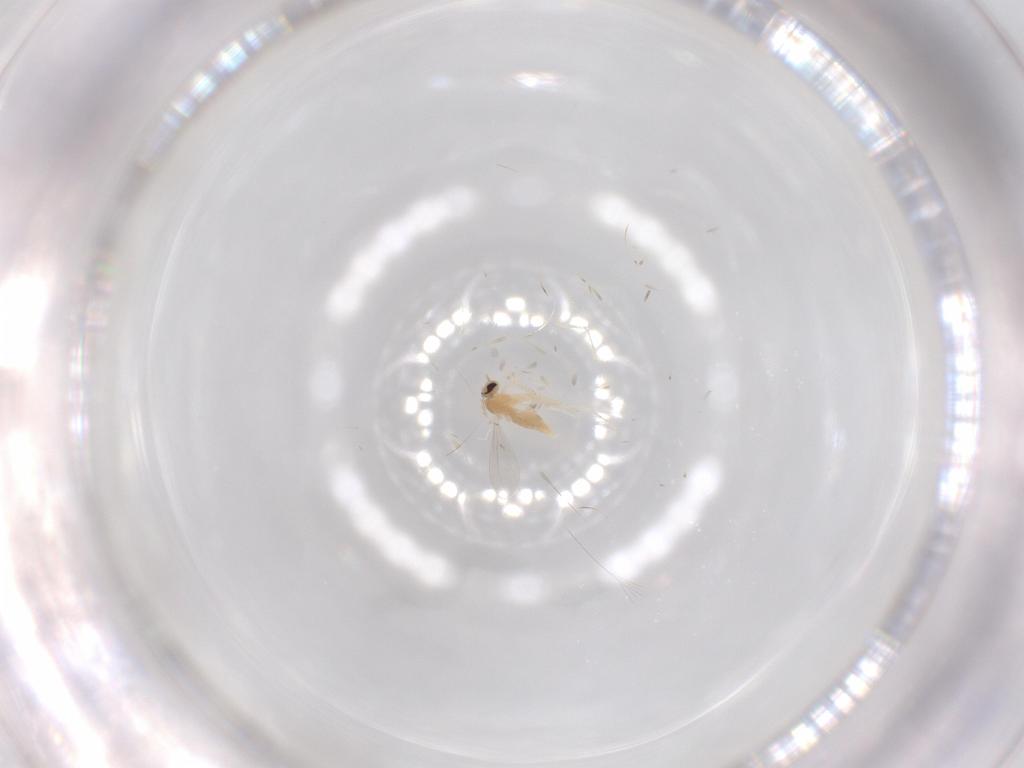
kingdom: Animalia
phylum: Arthropoda
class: Insecta
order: Diptera
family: Cecidomyiidae
